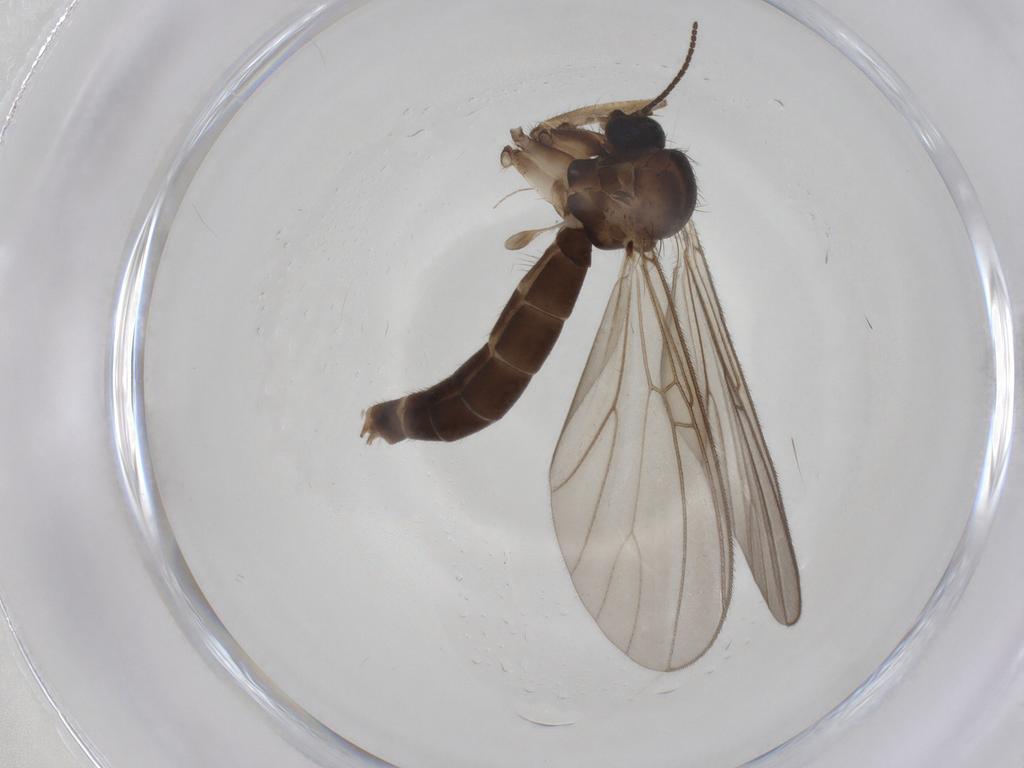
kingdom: Animalia
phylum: Arthropoda
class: Insecta
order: Diptera
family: Mycetophilidae
